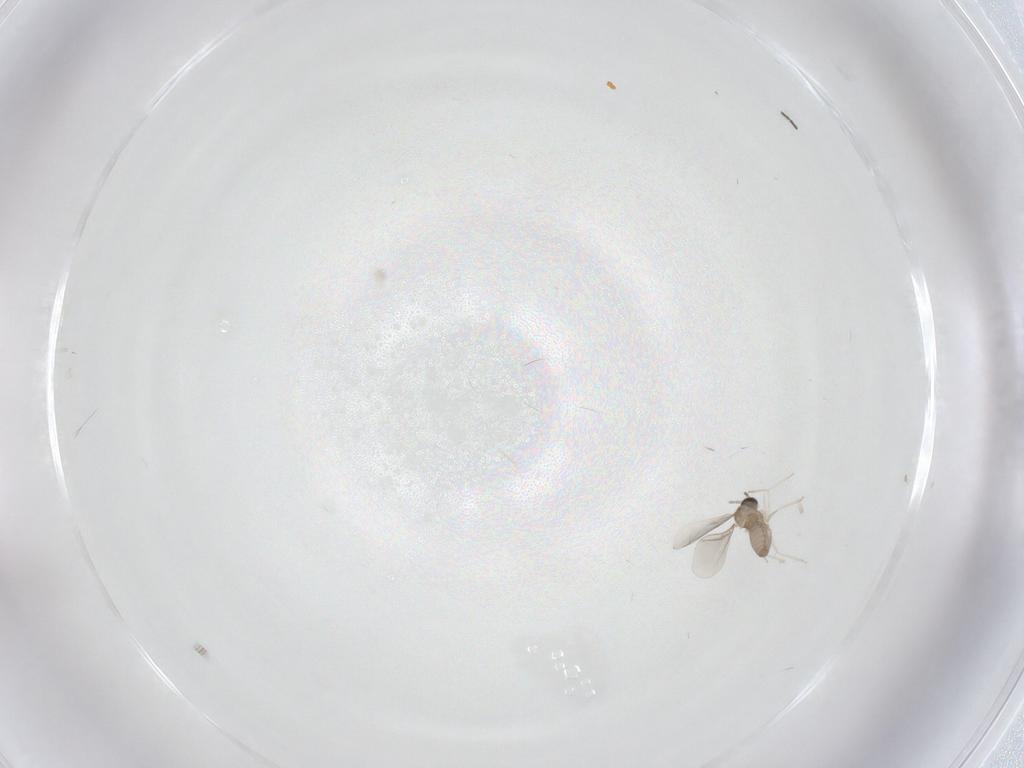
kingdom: Animalia
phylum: Arthropoda
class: Insecta
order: Diptera
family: Sciaridae
